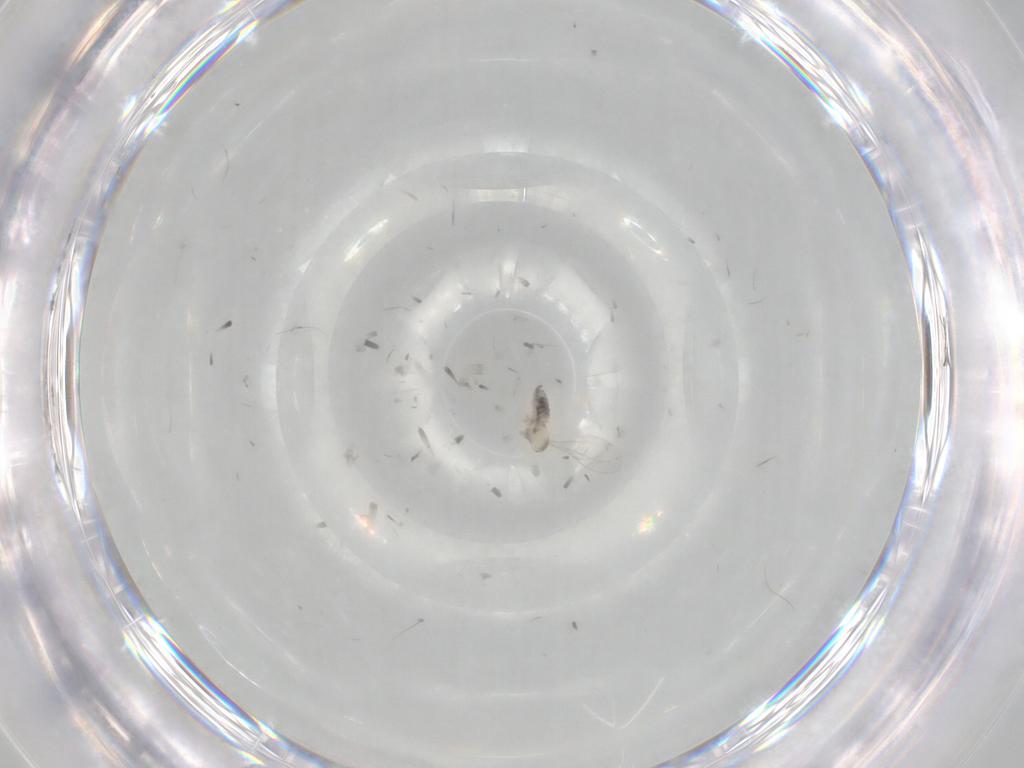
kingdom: Animalia
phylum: Arthropoda
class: Insecta
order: Diptera
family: Cecidomyiidae
